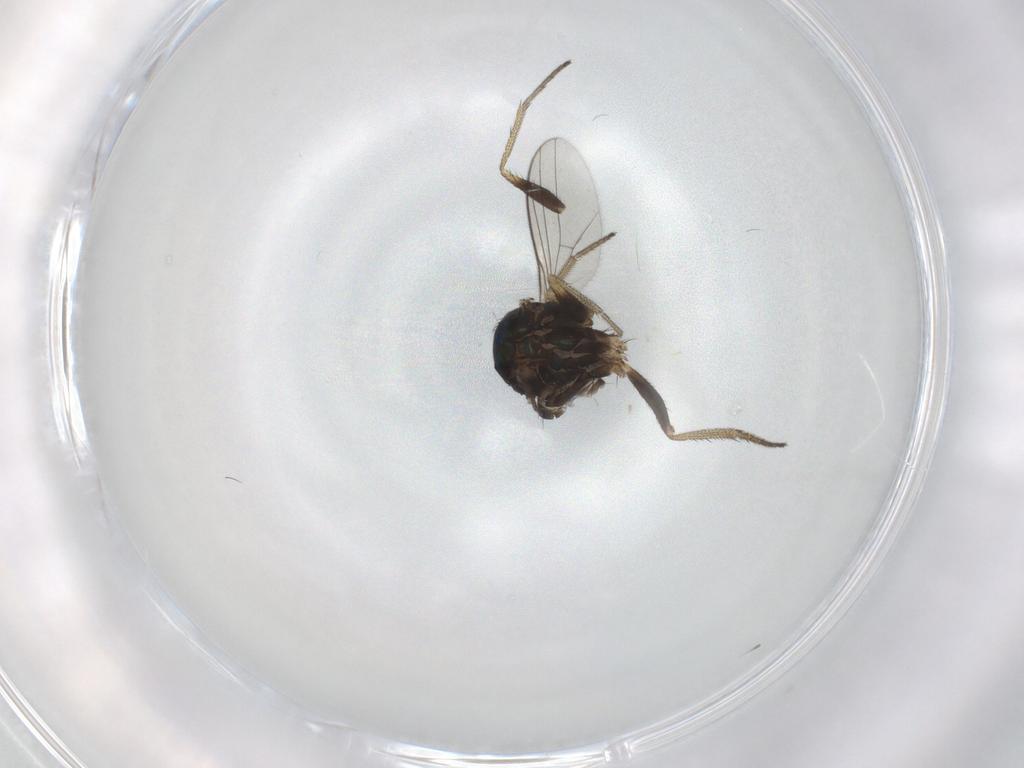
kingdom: Animalia
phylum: Arthropoda
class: Insecta
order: Diptera
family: Dolichopodidae
